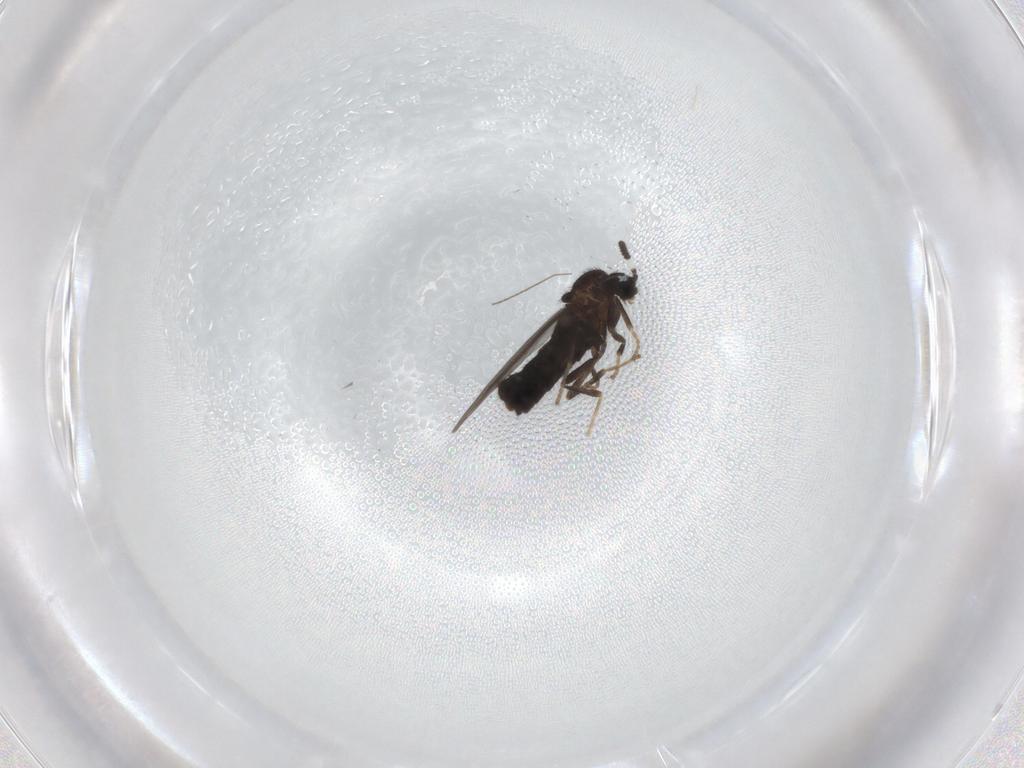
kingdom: Animalia
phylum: Arthropoda
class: Insecta
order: Diptera
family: Scatopsidae
